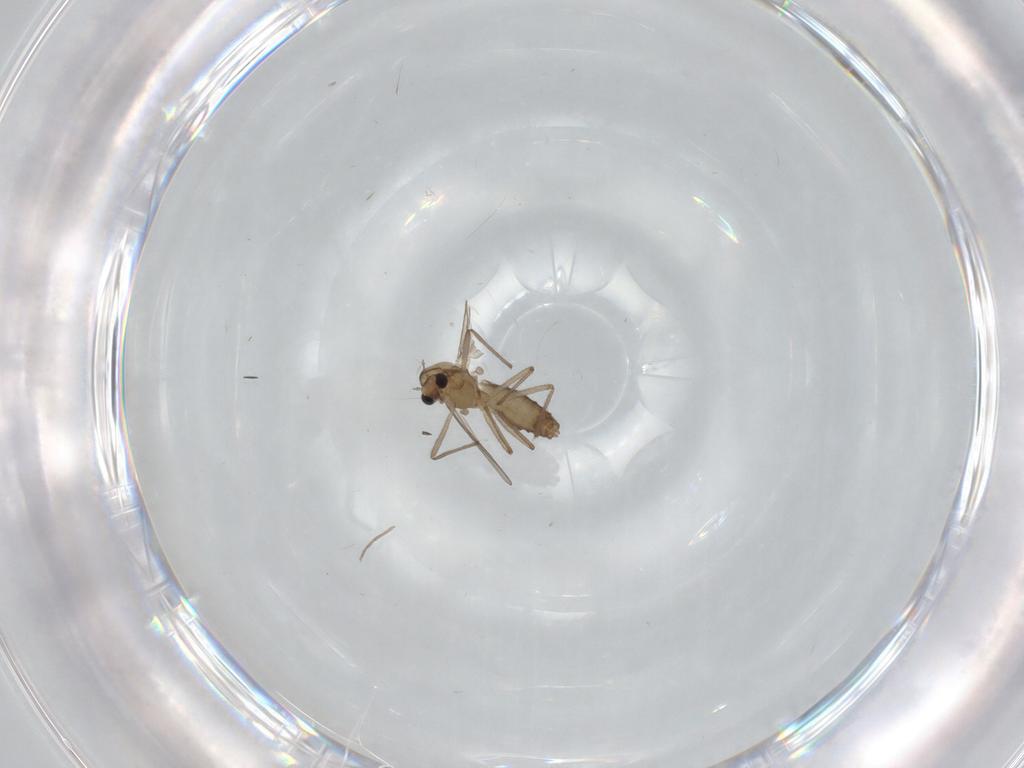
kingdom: Animalia
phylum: Arthropoda
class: Insecta
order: Diptera
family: Chironomidae
